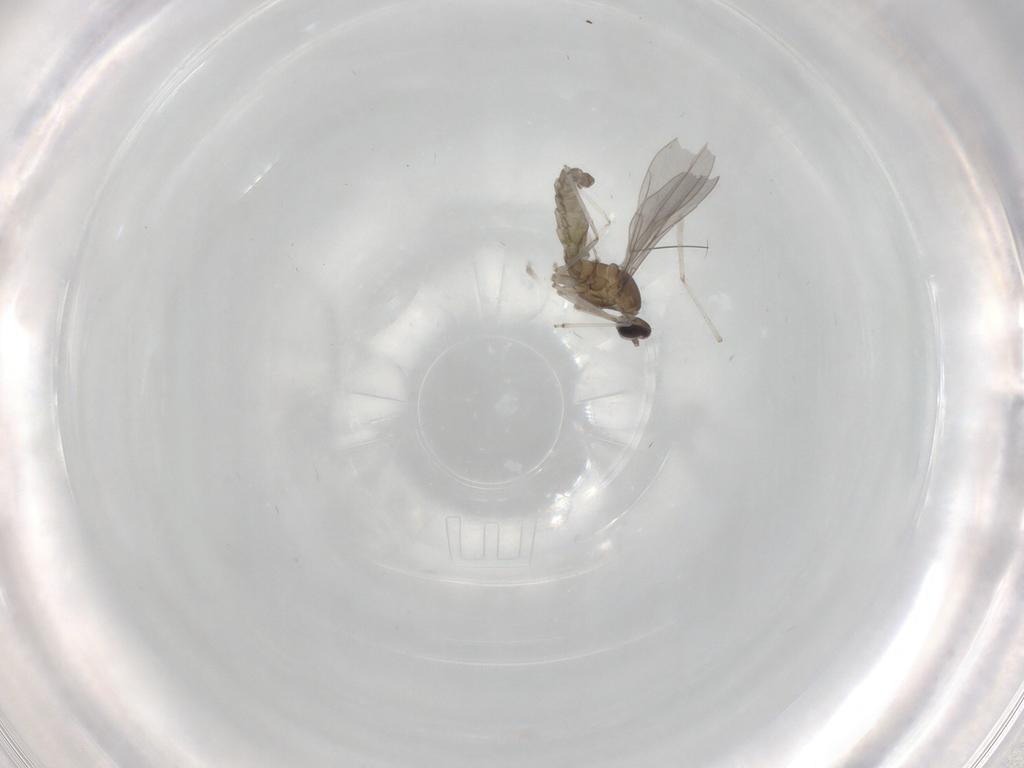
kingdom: Animalia
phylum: Arthropoda
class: Insecta
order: Diptera
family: Cecidomyiidae
